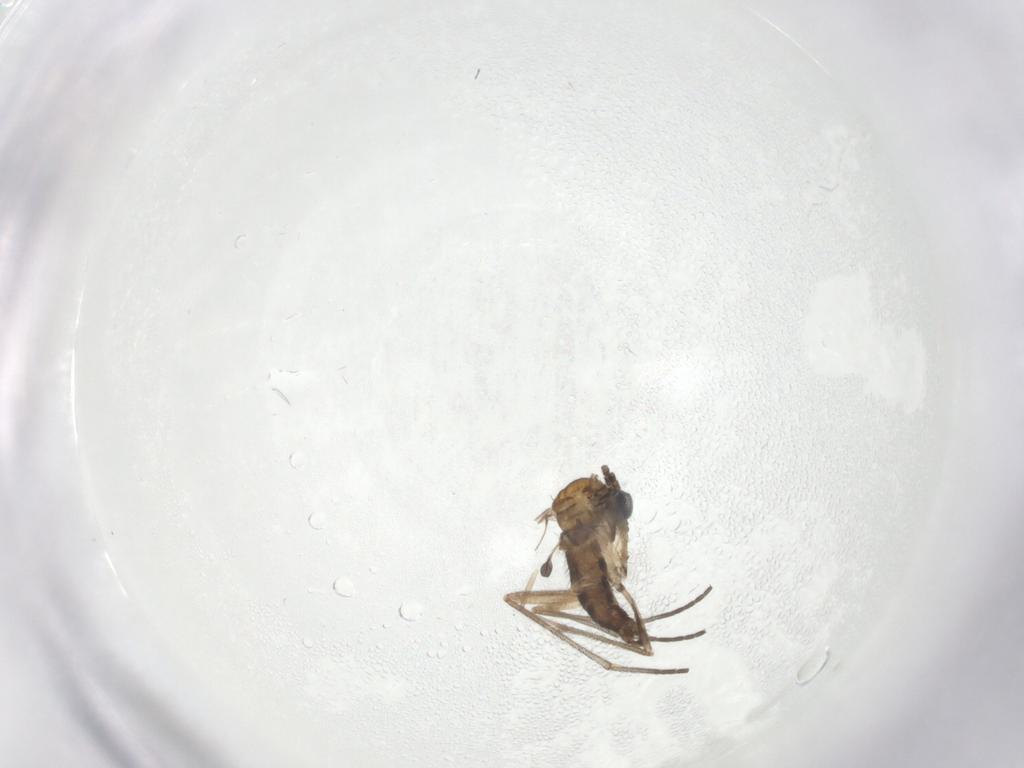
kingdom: Animalia
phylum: Arthropoda
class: Insecta
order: Diptera
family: Sciaridae
